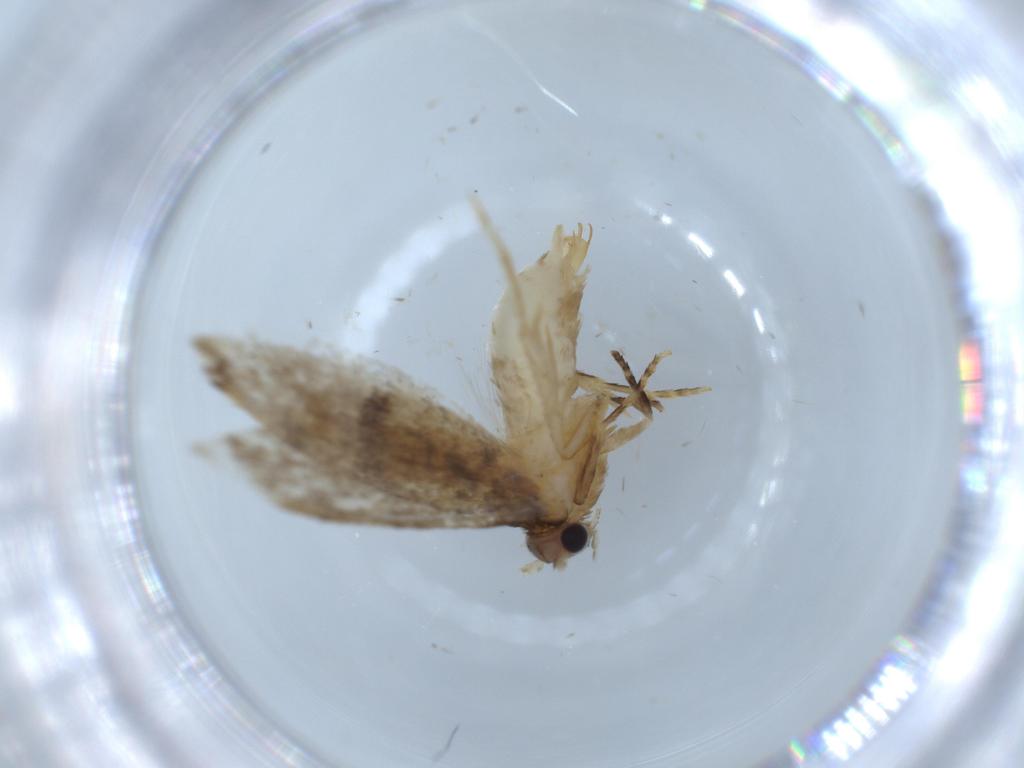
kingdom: Animalia
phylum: Arthropoda
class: Insecta
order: Lepidoptera
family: Tineidae
